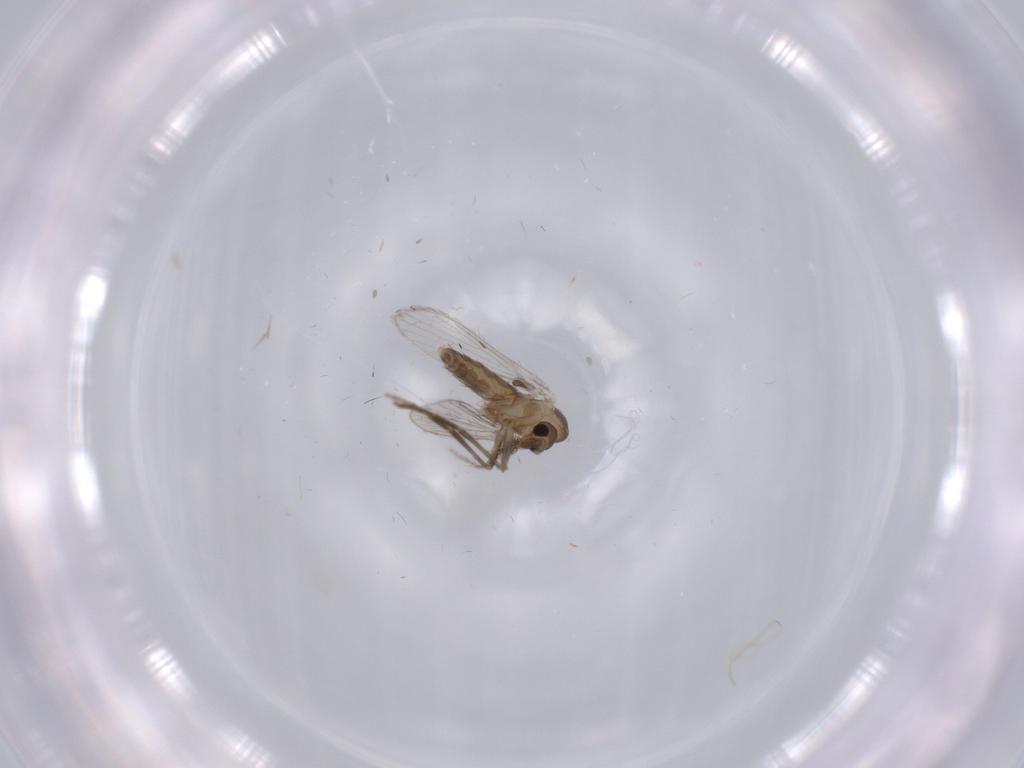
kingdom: Animalia
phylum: Arthropoda
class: Insecta
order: Diptera
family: Psychodidae
